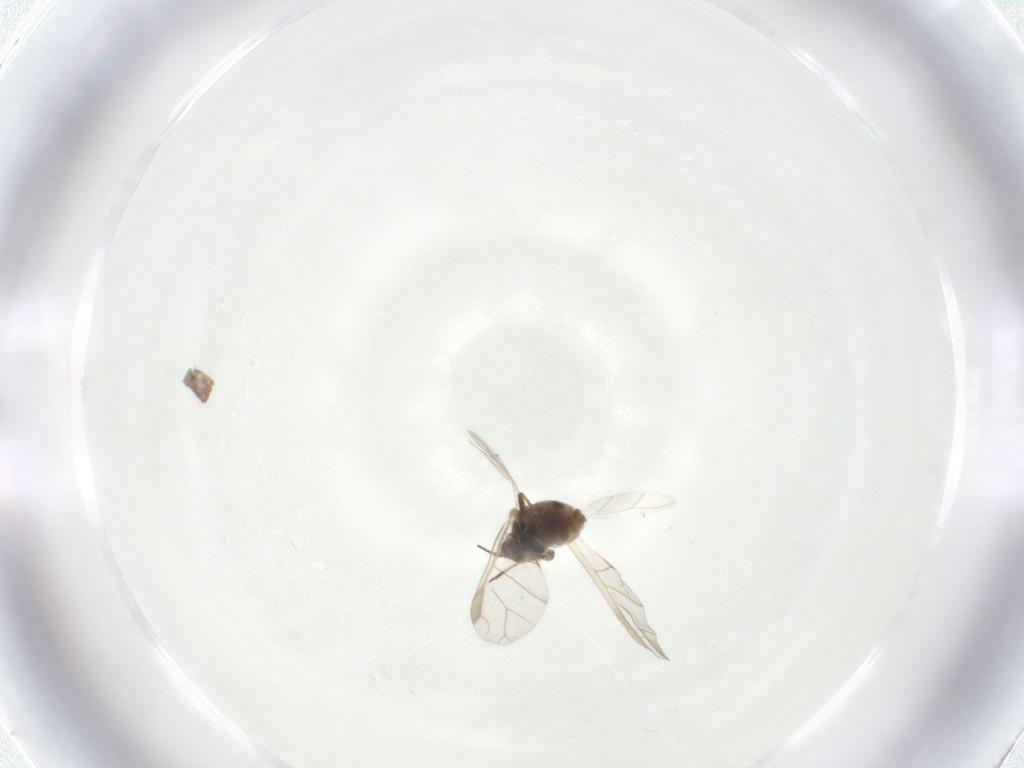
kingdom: Animalia
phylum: Arthropoda
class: Insecta
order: Hemiptera
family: Aphididae
